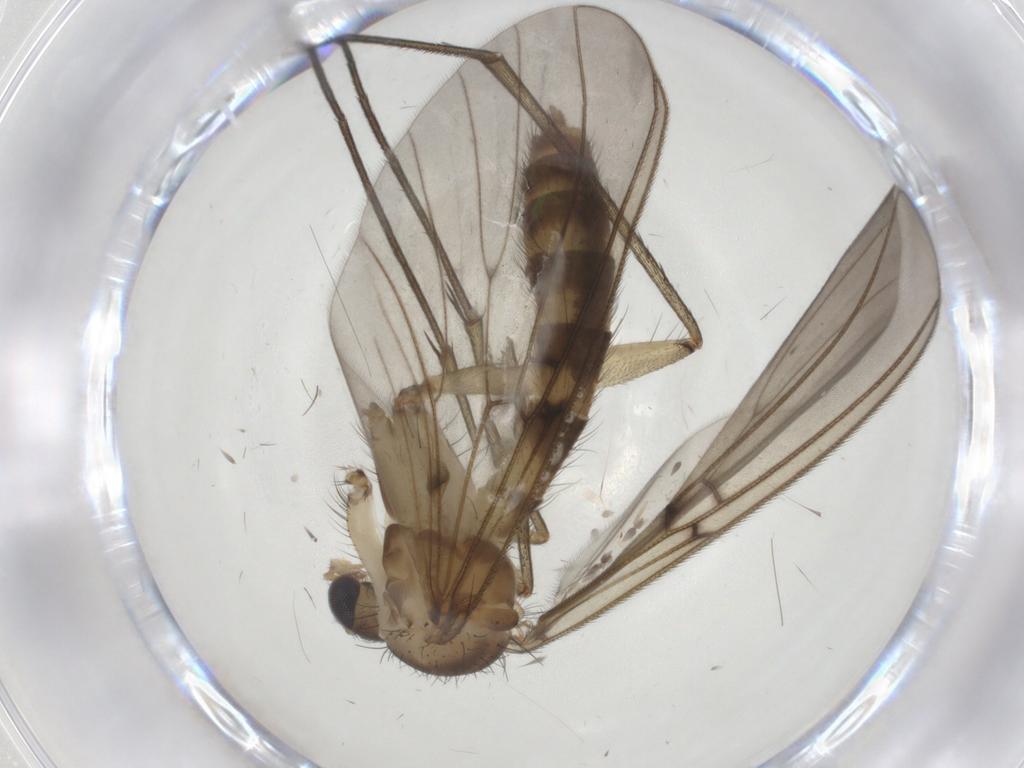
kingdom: Animalia
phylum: Arthropoda
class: Insecta
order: Diptera
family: Mycetophilidae
